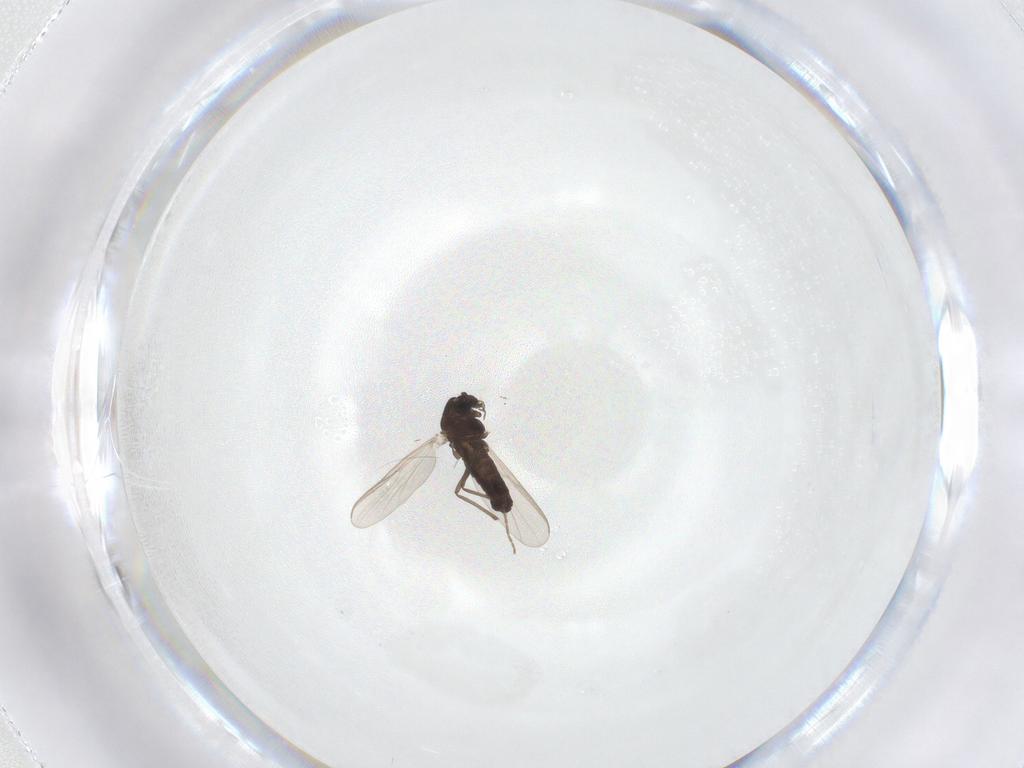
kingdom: Animalia
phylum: Arthropoda
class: Insecta
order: Diptera
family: Chironomidae
